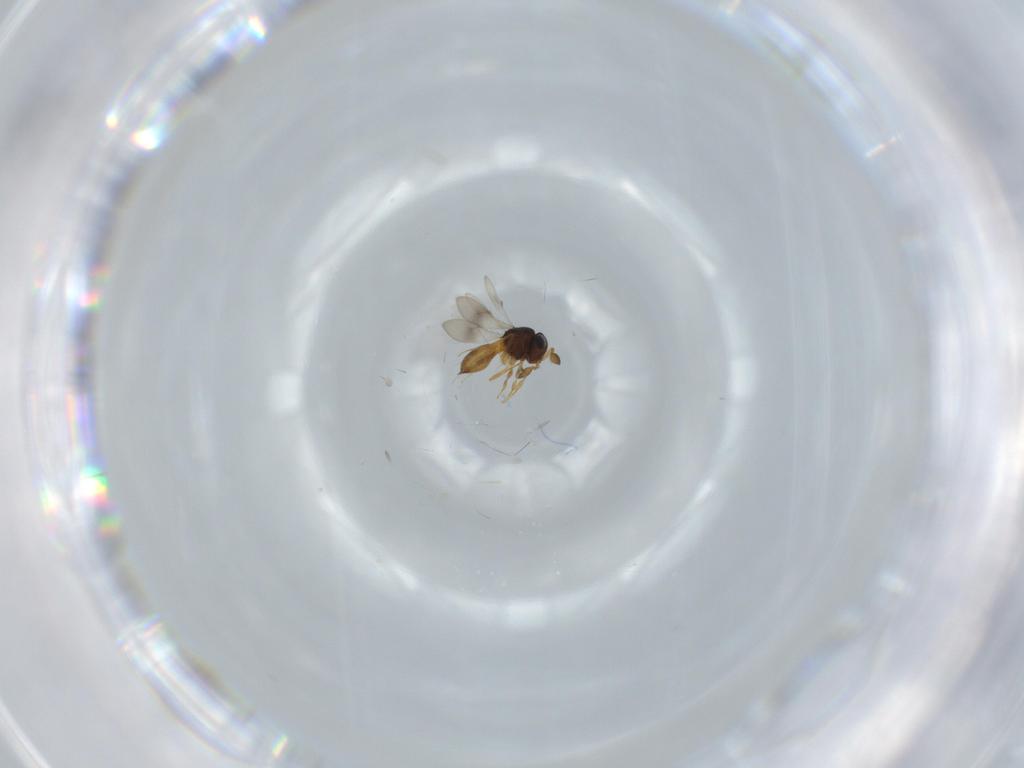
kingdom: Animalia
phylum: Arthropoda
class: Insecta
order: Hymenoptera
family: Scelionidae
